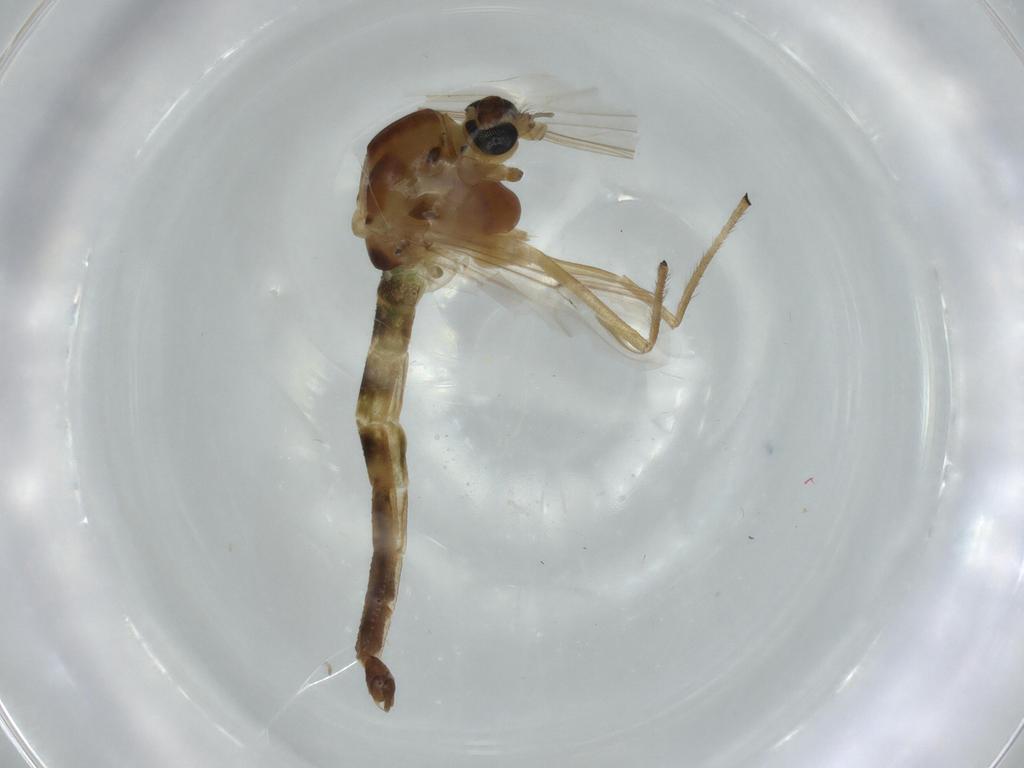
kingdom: Animalia
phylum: Arthropoda
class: Insecta
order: Diptera
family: Chironomidae
